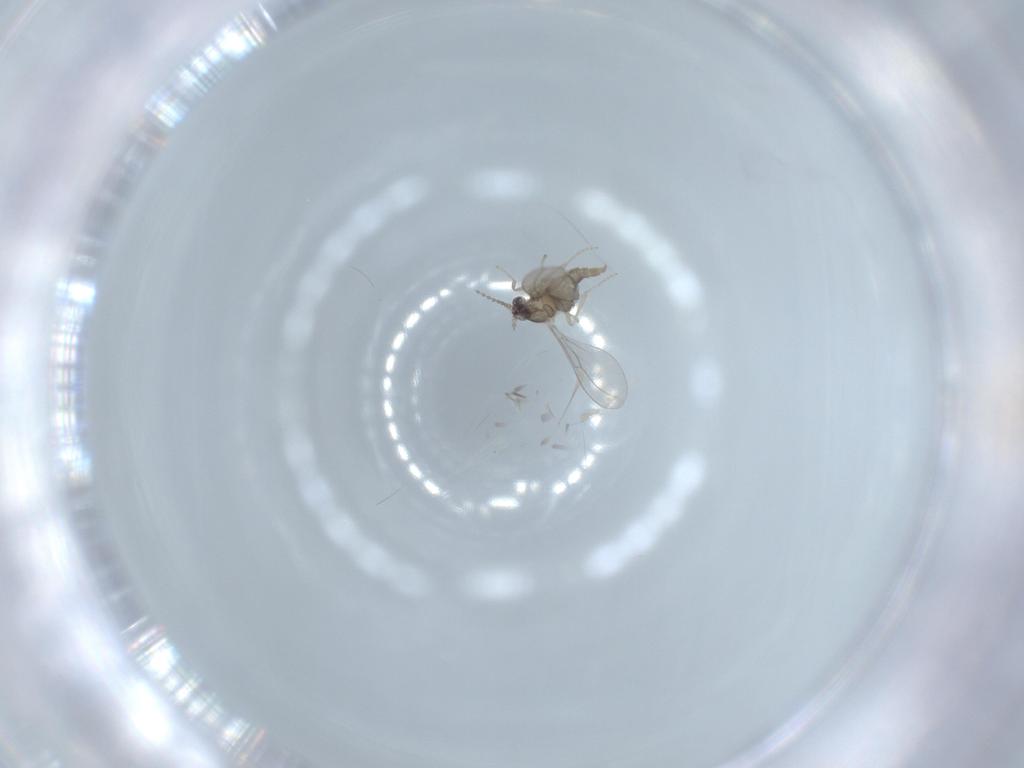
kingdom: Animalia
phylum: Arthropoda
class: Insecta
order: Diptera
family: Cecidomyiidae
